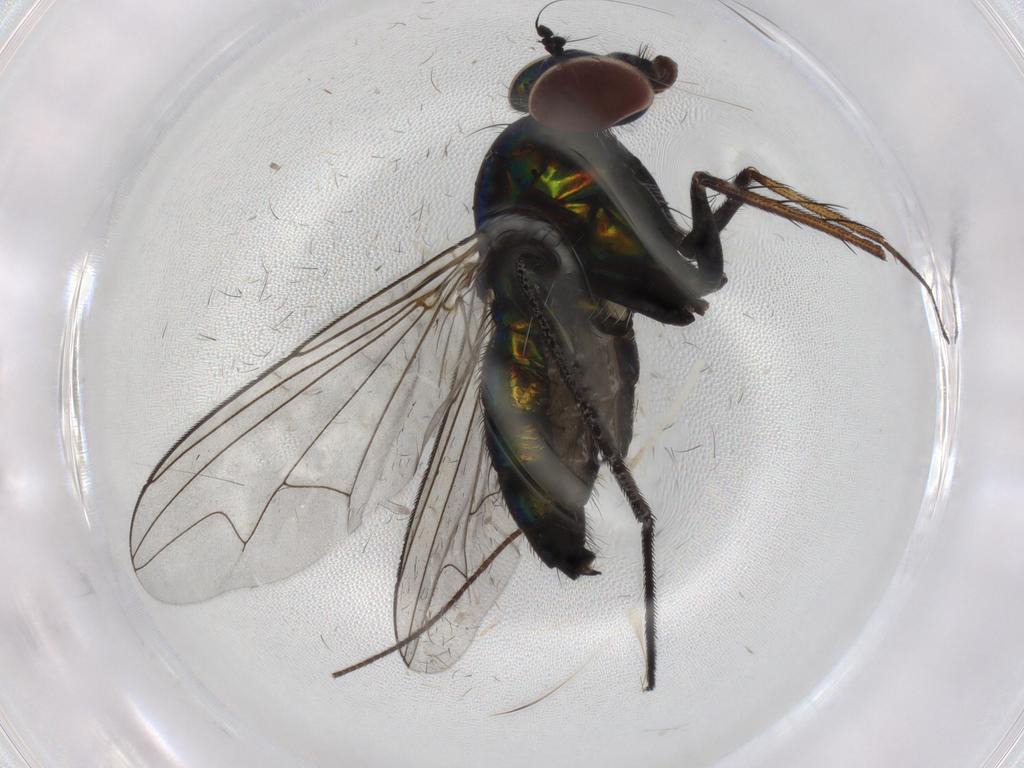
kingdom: Animalia
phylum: Arthropoda
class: Insecta
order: Diptera
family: Dolichopodidae
